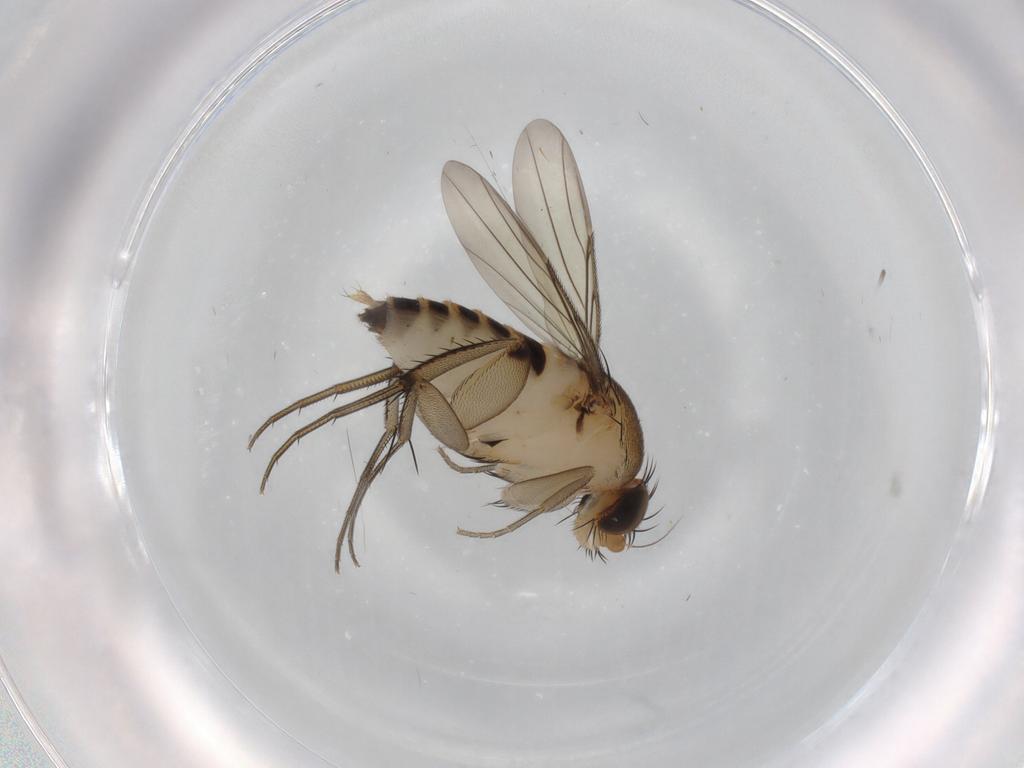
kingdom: Animalia
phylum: Arthropoda
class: Insecta
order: Diptera
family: Phoridae
